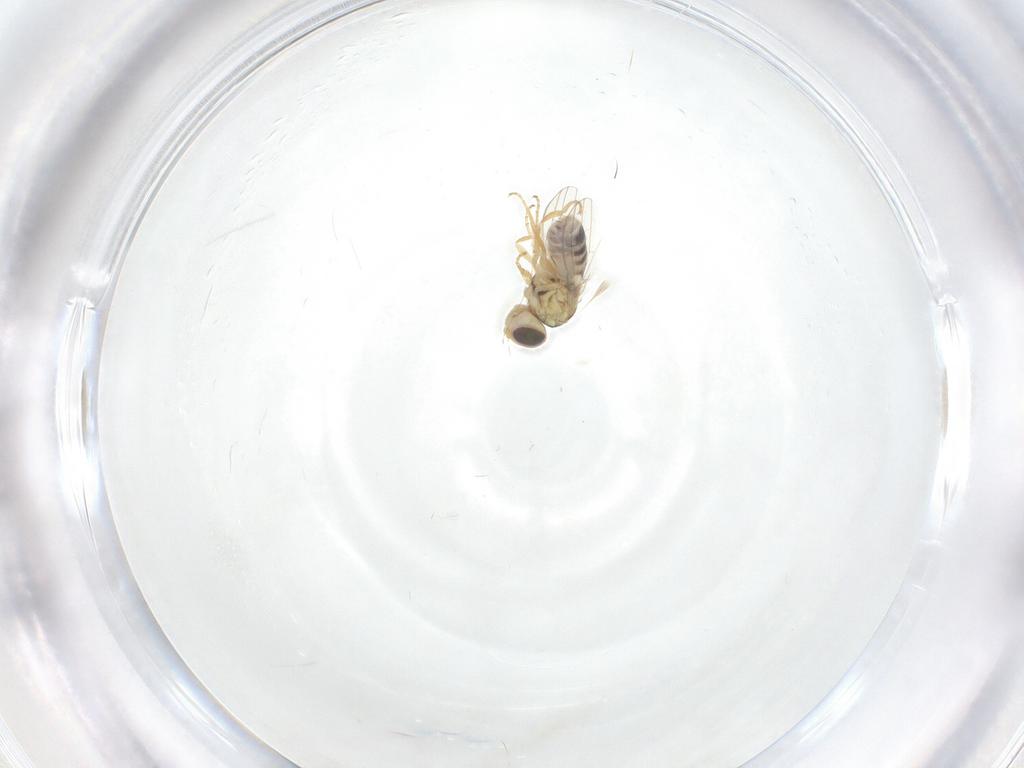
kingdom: Animalia
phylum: Arthropoda
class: Insecta
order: Diptera
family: Chyromyidae
